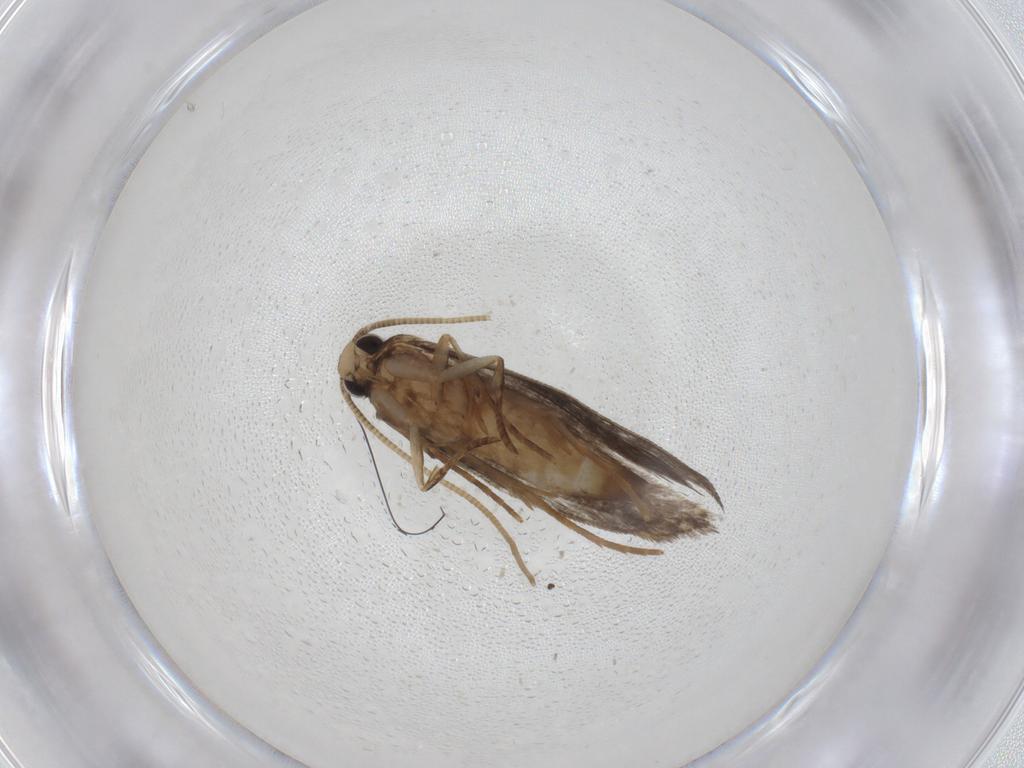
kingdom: Animalia
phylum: Arthropoda
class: Insecta
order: Lepidoptera
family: Tineidae
